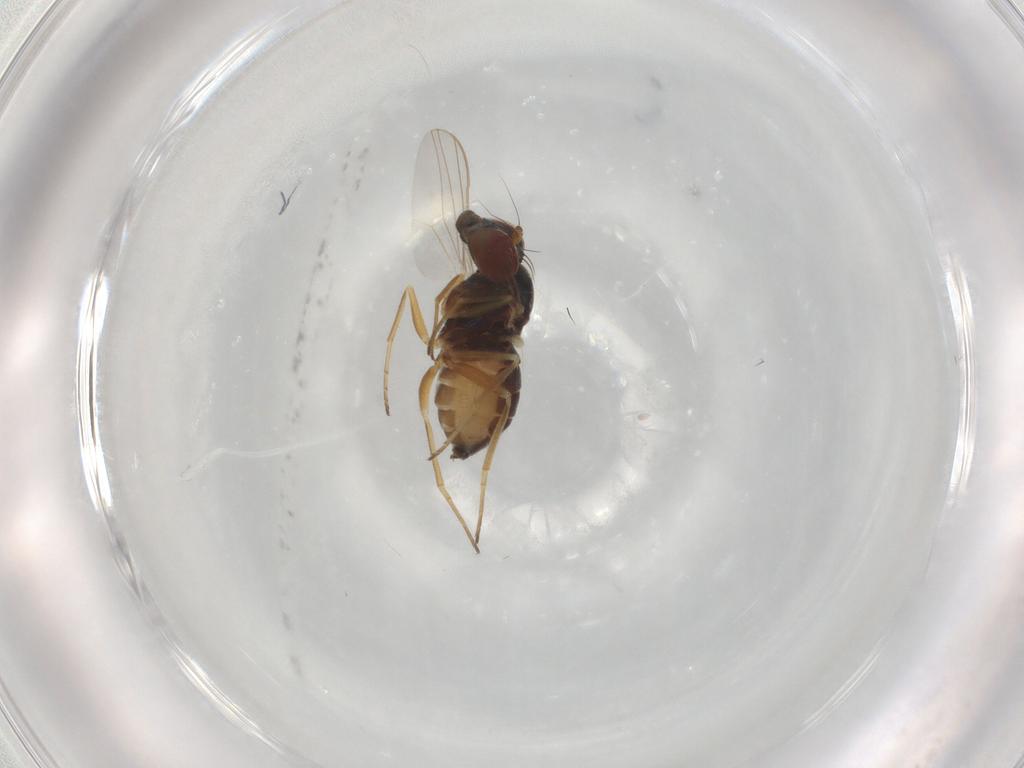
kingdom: Animalia
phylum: Arthropoda
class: Insecta
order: Diptera
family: Dolichopodidae
